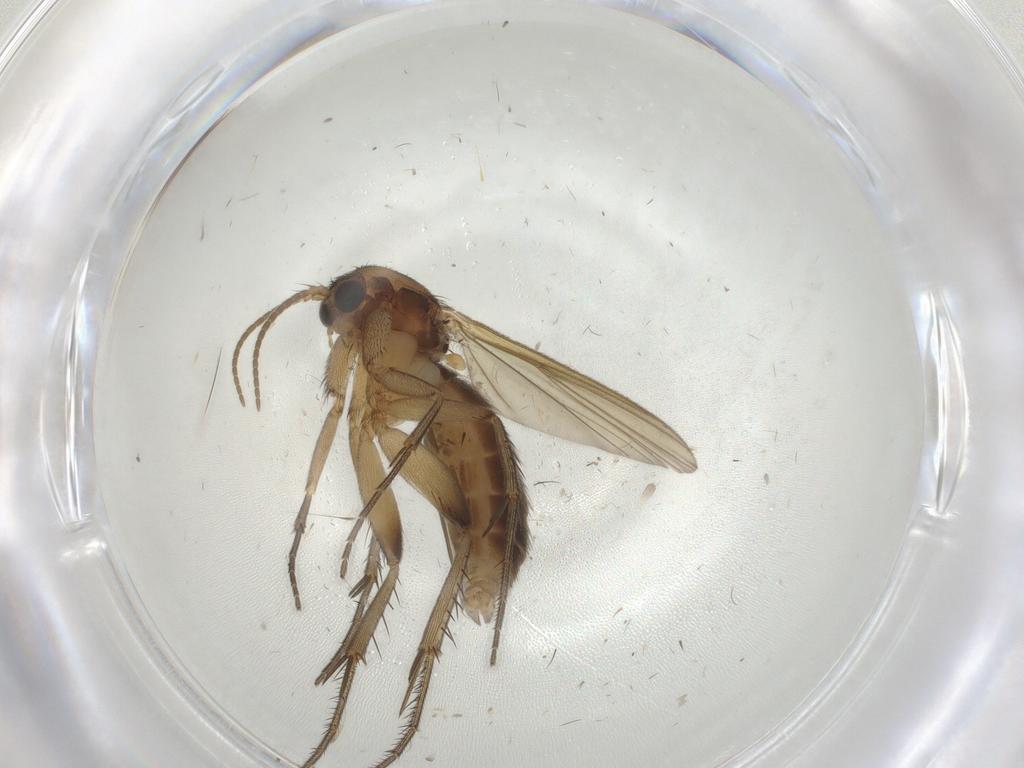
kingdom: Animalia
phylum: Arthropoda
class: Insecta
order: Diptera
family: Mycetophilidae
